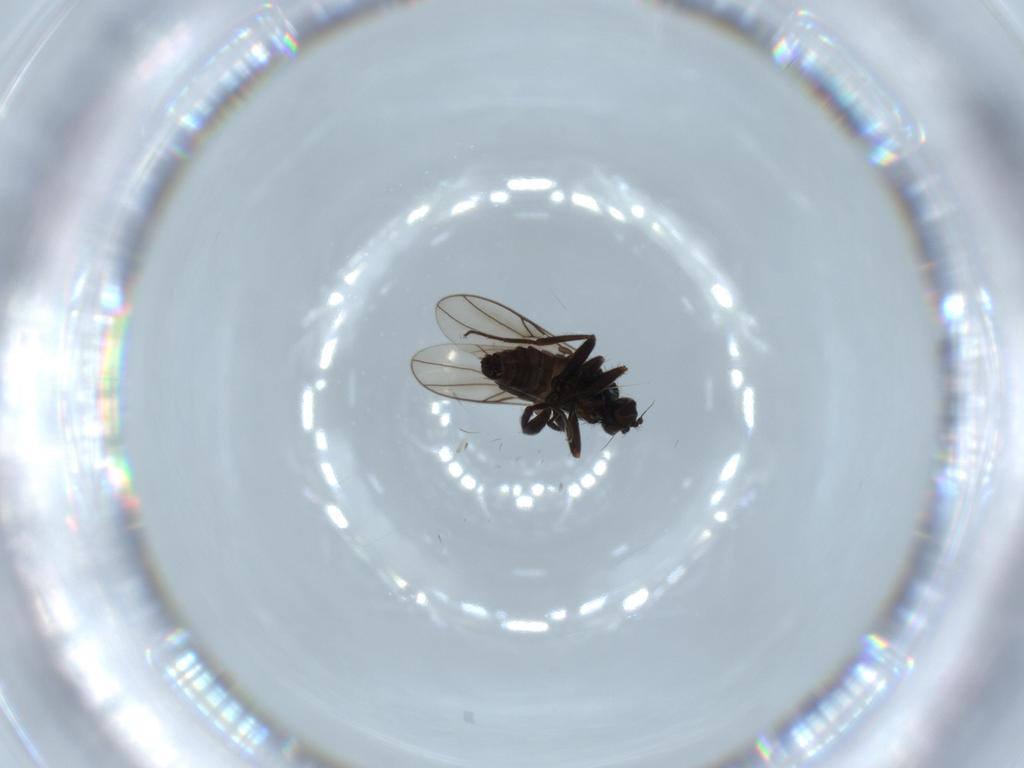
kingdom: Animalia
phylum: Arthropoda
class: Insecta
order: Diptera
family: Hybotidae
